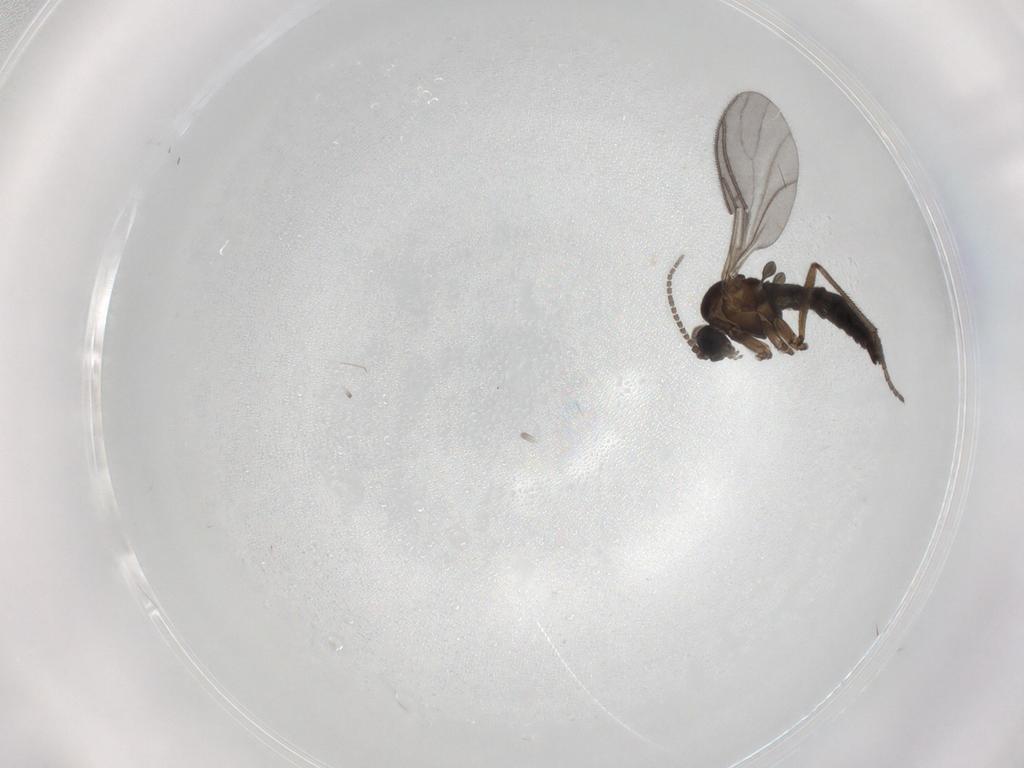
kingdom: Animalia
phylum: Arthropoda
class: Insecta
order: Diptera
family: Sciaridae
